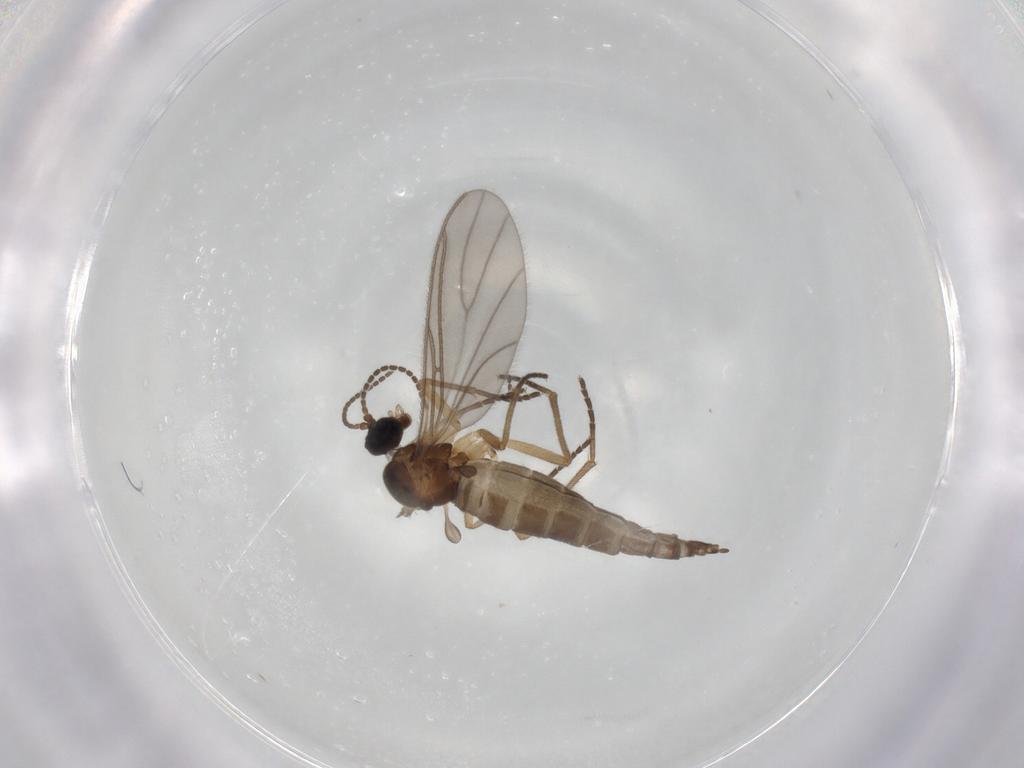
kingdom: Animalia
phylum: Arthropoda
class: Insecta
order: Diptera
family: Sciaridae
